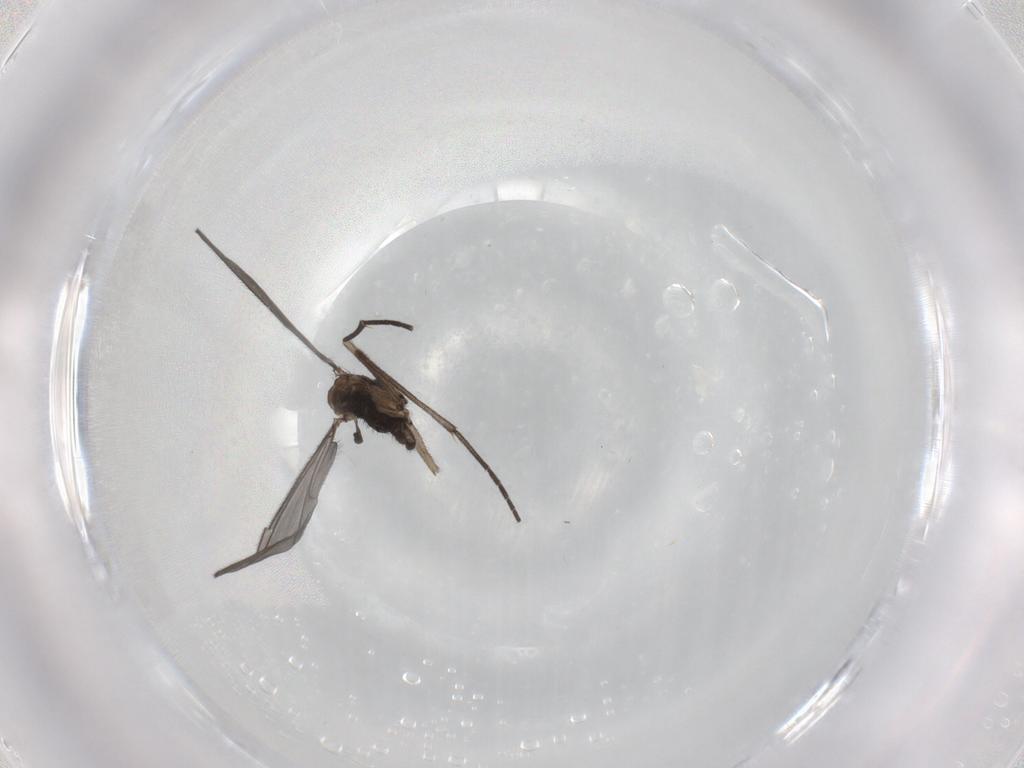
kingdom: Animalia
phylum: Arthropoda
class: Insecta
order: Diptera
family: Sciaridae
